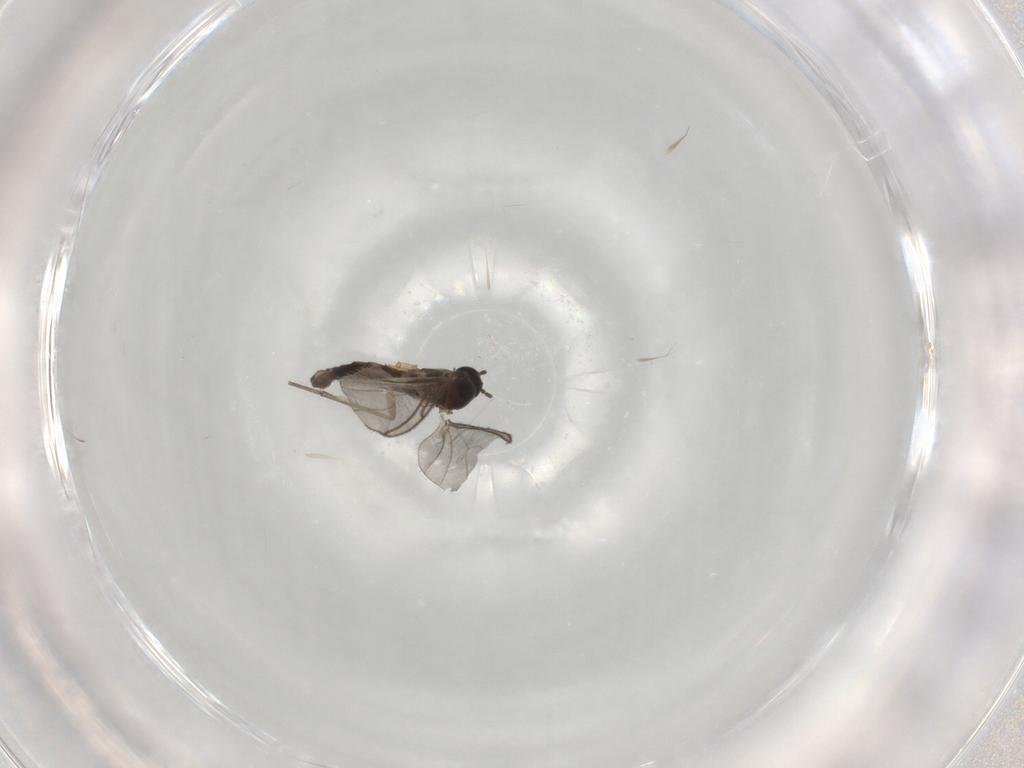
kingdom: Animalia
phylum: Arthropoda
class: Insecta
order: Diptera
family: Sciaridae
